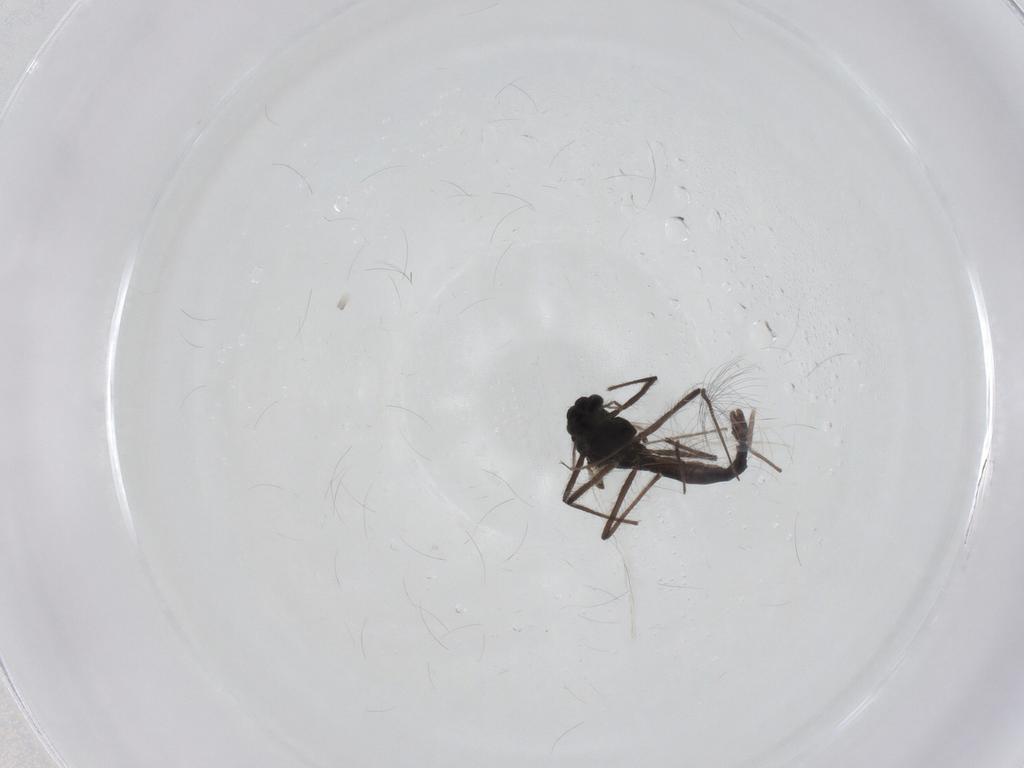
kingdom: Animalia
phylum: Arthropoda
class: Insecta
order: Diptera
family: Chironomidae
